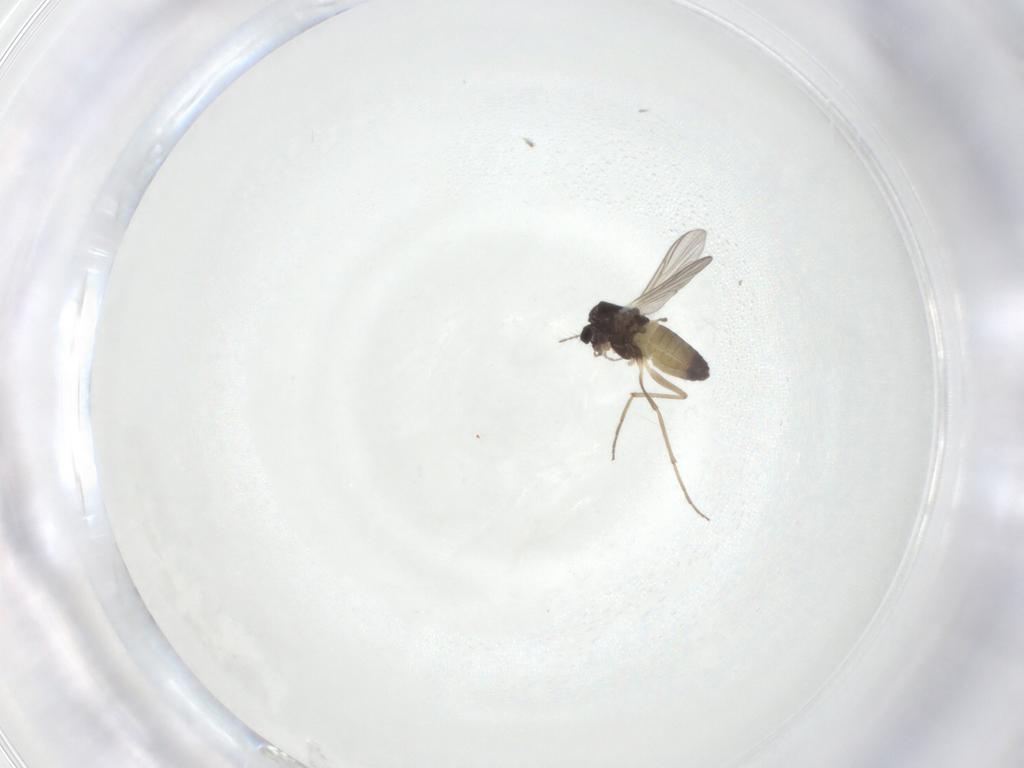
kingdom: Animalia
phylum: Arthropoda
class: Insecta
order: Diptera
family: Chironomidae
